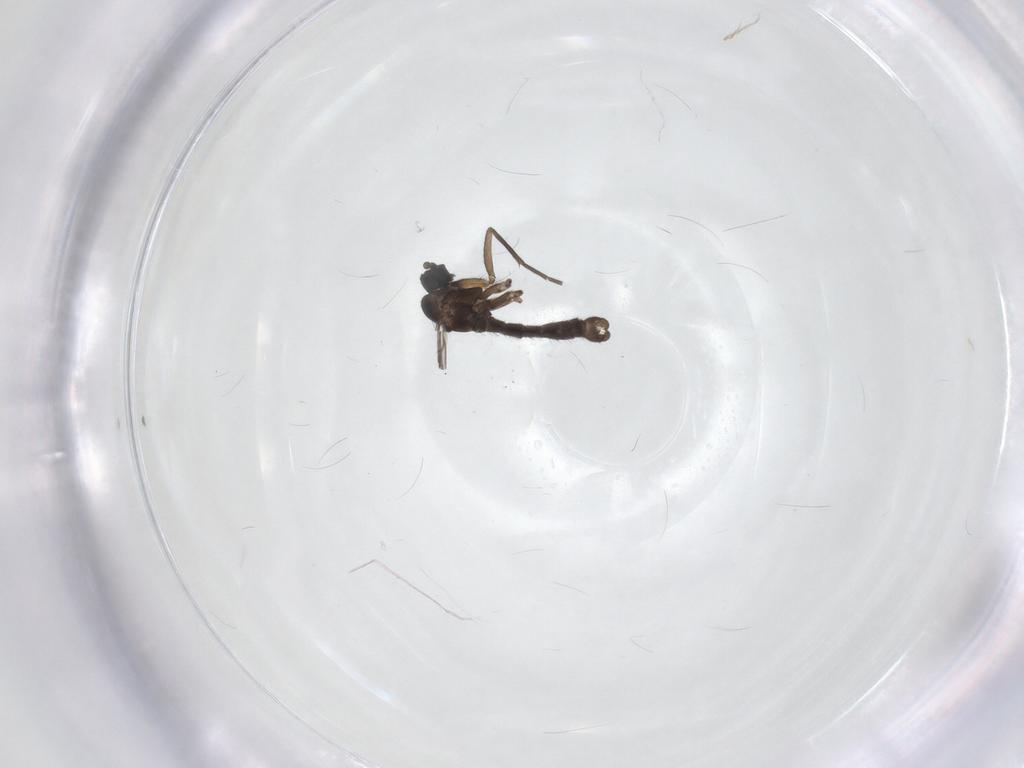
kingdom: Animalia
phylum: Arthropoda
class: Insecta
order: Diptera
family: Sciaridae
